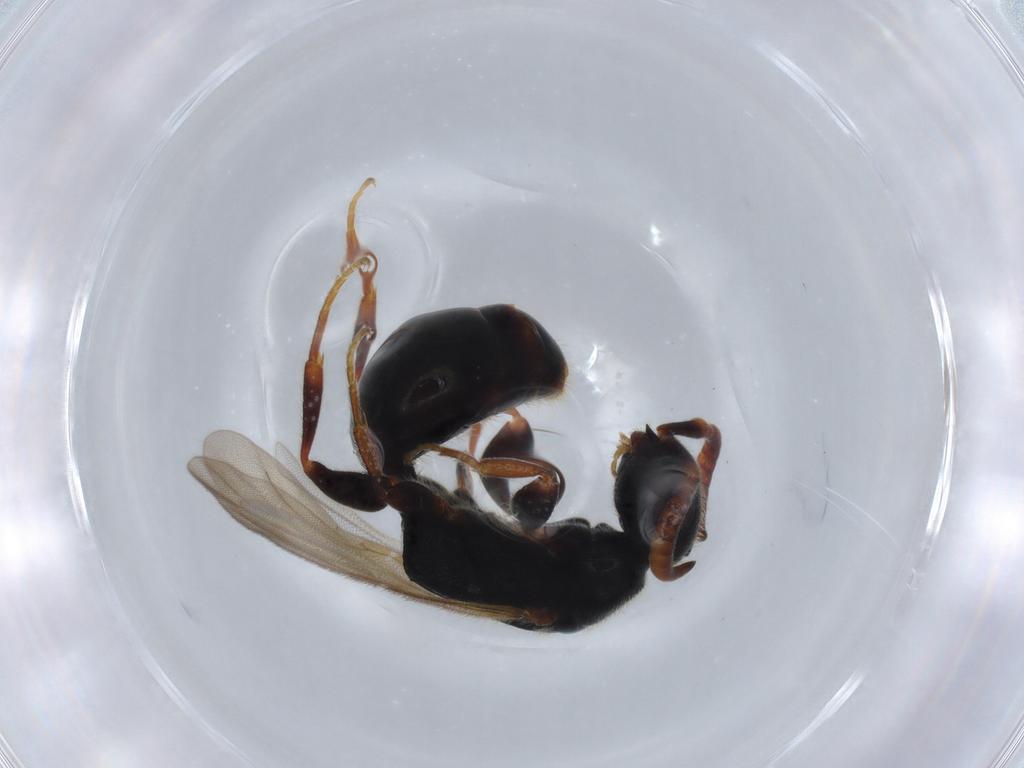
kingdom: Animalia
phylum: Arthropoda
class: Insecta
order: Hymenoptera
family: Bethylidae
